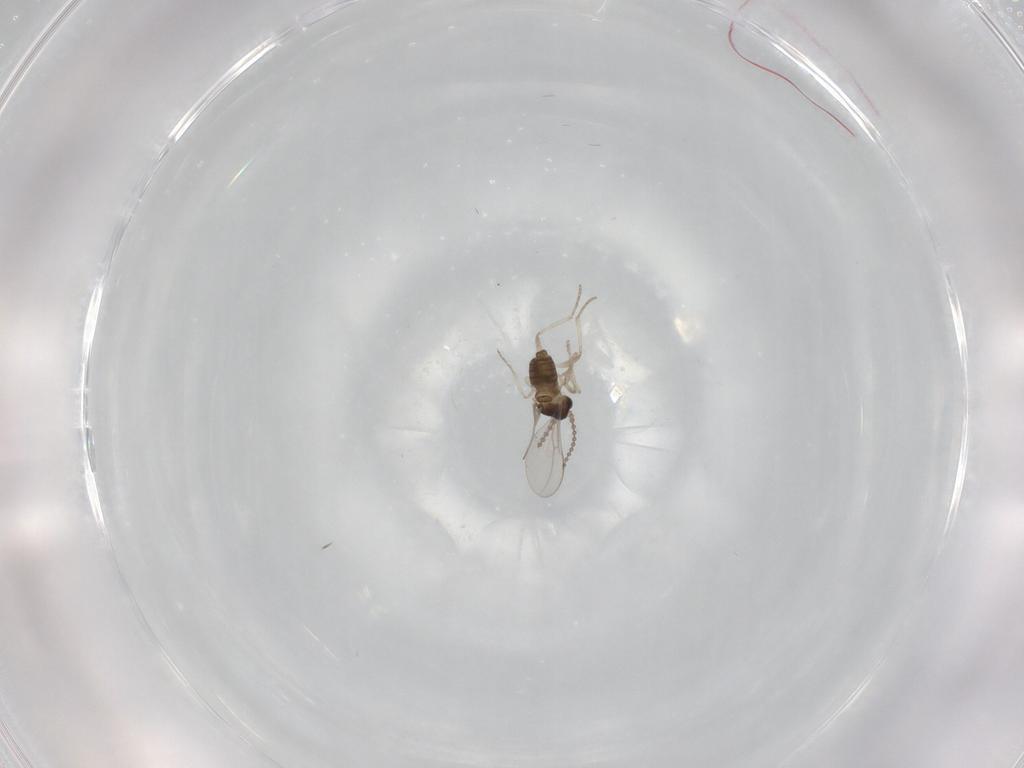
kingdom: Animalia
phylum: Arthropoda
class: Insecta
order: Diptera
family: Cecidomyiidae
